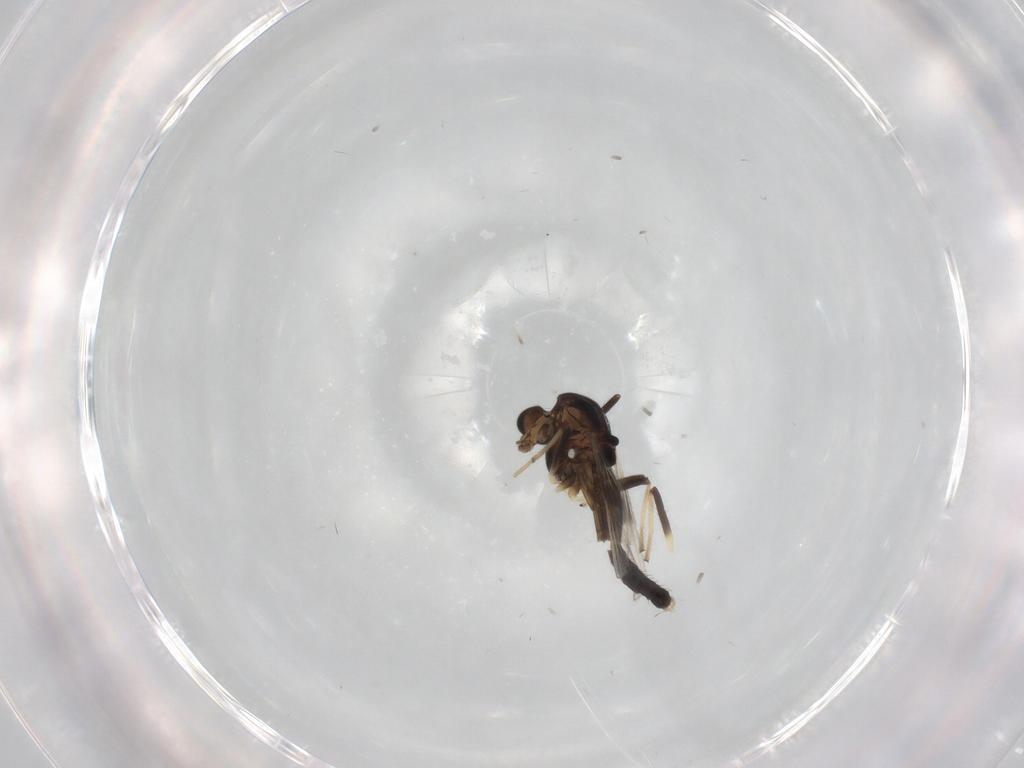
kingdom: Animalia
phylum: Arthropoda
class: Insecta
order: Diptera
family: Chironomidae
